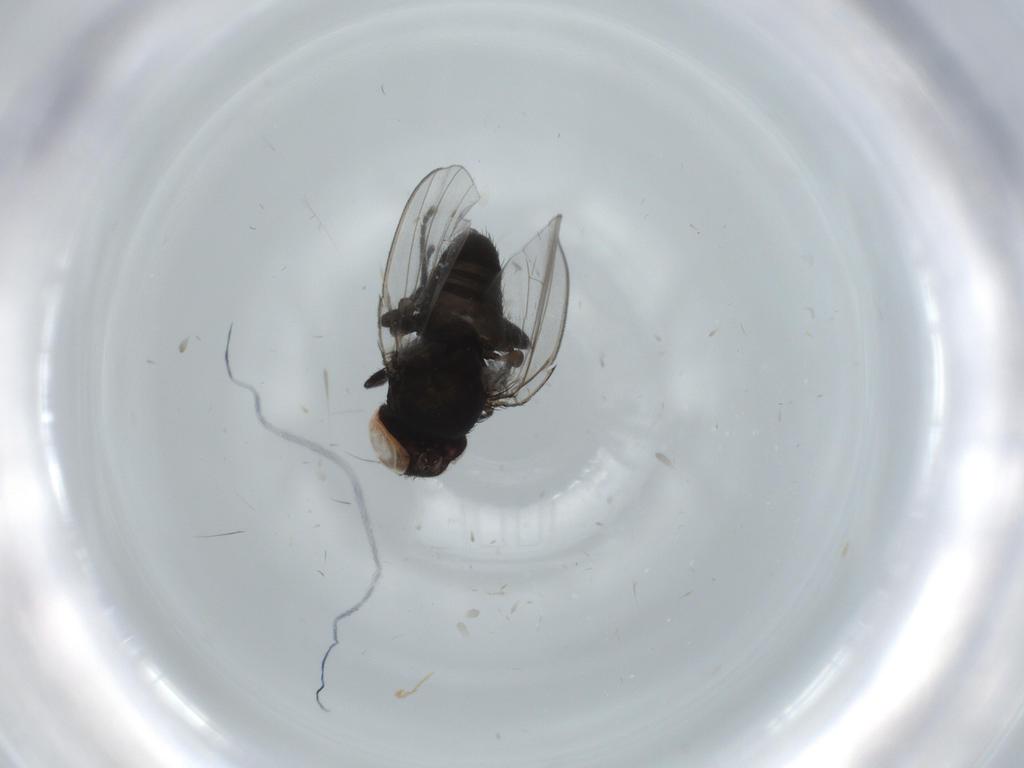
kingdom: Animalia
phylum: Arthropoda
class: Insecta
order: Diptera
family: Milichiidae
